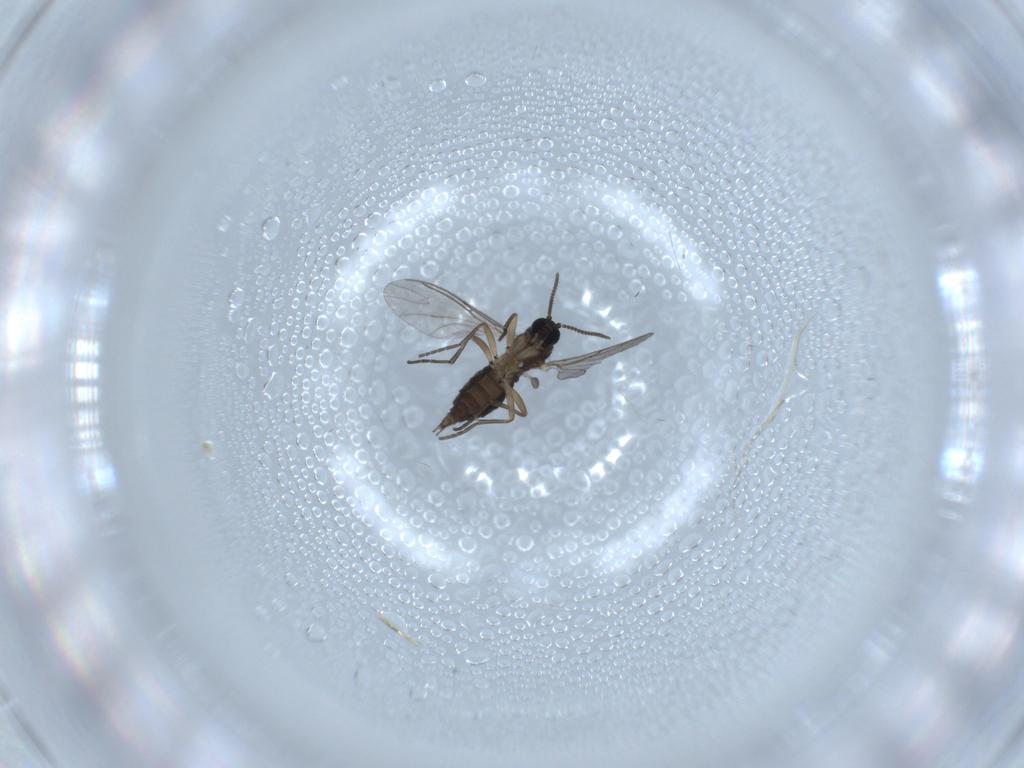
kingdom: Animalia
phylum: Arthropoda
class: Insecta
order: Diptera
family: Sciaridae
